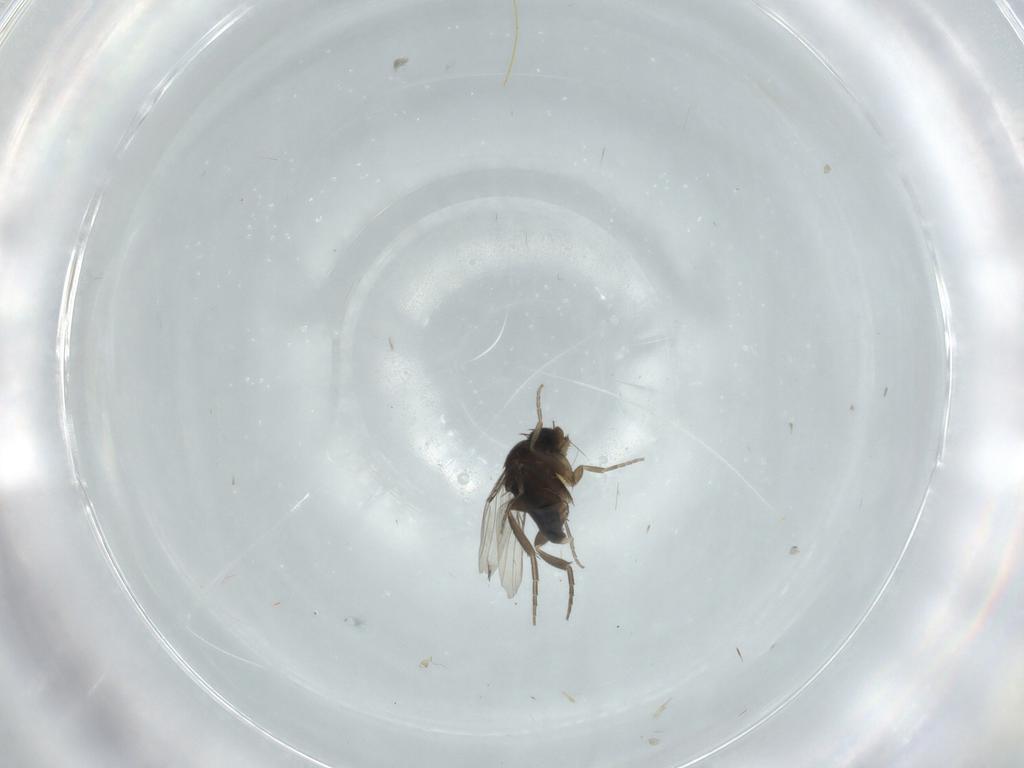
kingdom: Animalia
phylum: Arthropoda
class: Insecta
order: Diptera
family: Phoridae
